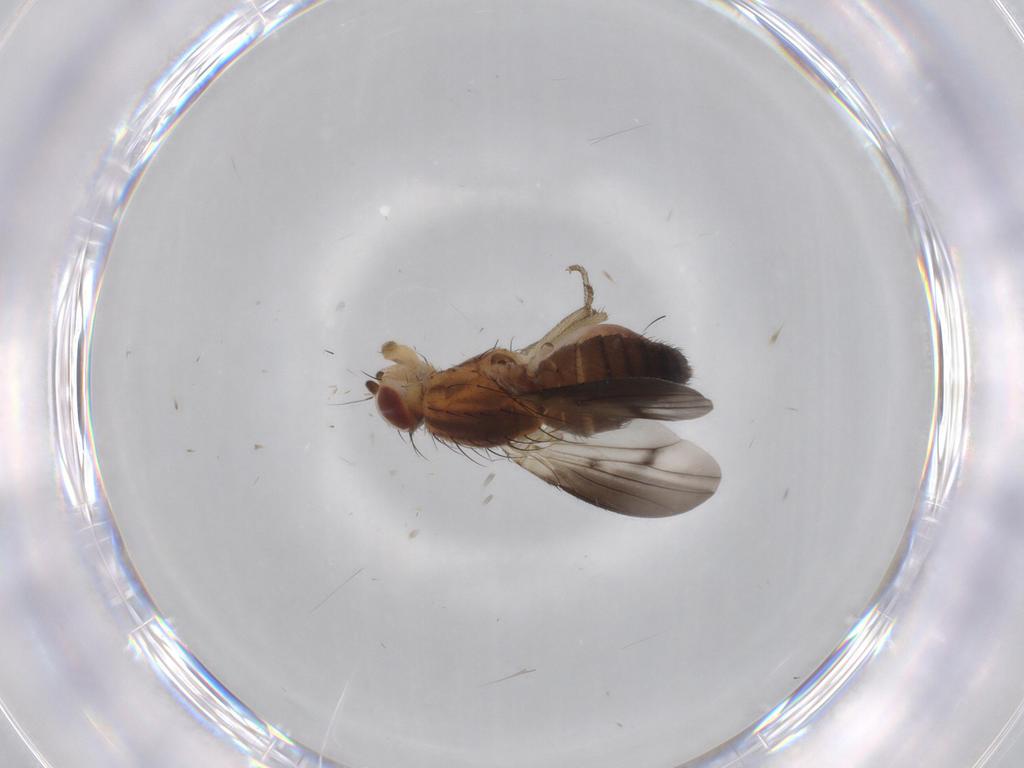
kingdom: Animalia
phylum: Arthropoda
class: Insecta
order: Diptera
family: Heleomyzidae
